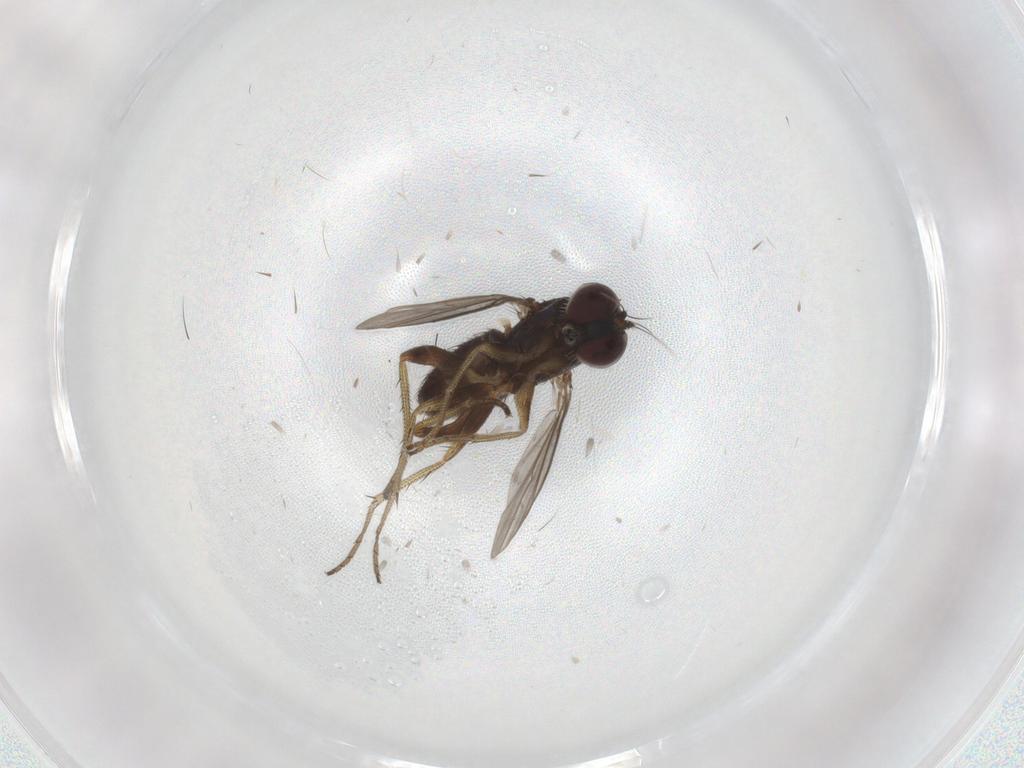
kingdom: Animalia
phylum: Arthropoda
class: Insecta
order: Diptera
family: Dolichopodidae
